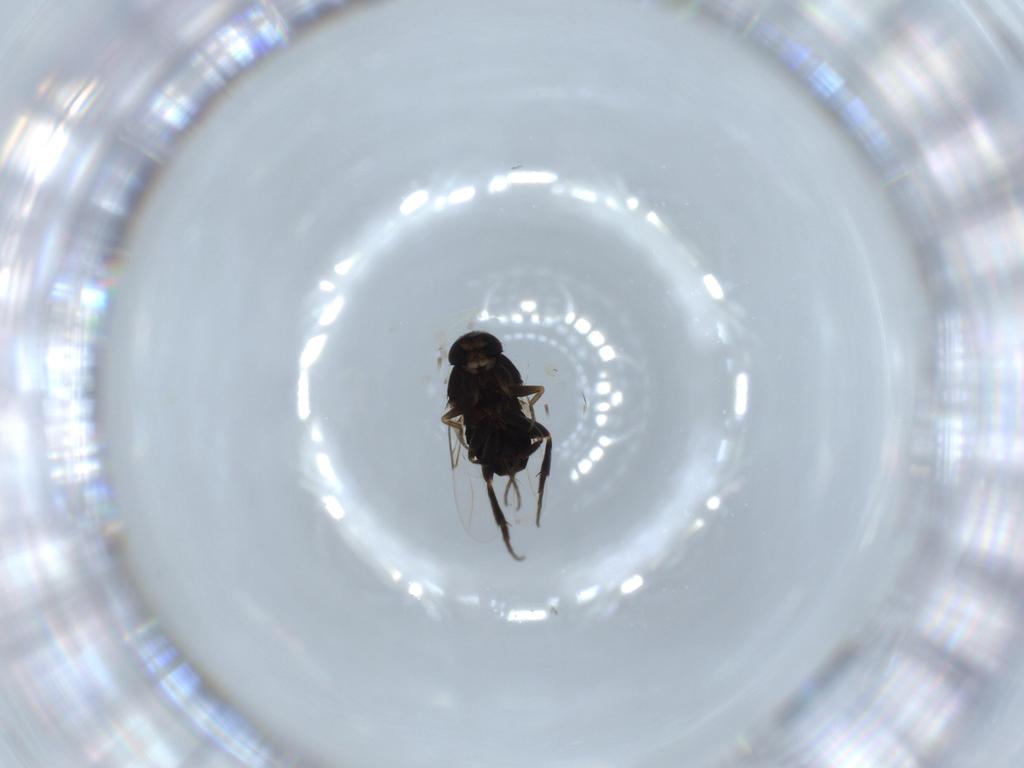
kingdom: Animalia
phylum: Arthropoda
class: Insecta
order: Diptera
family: Phoridae
